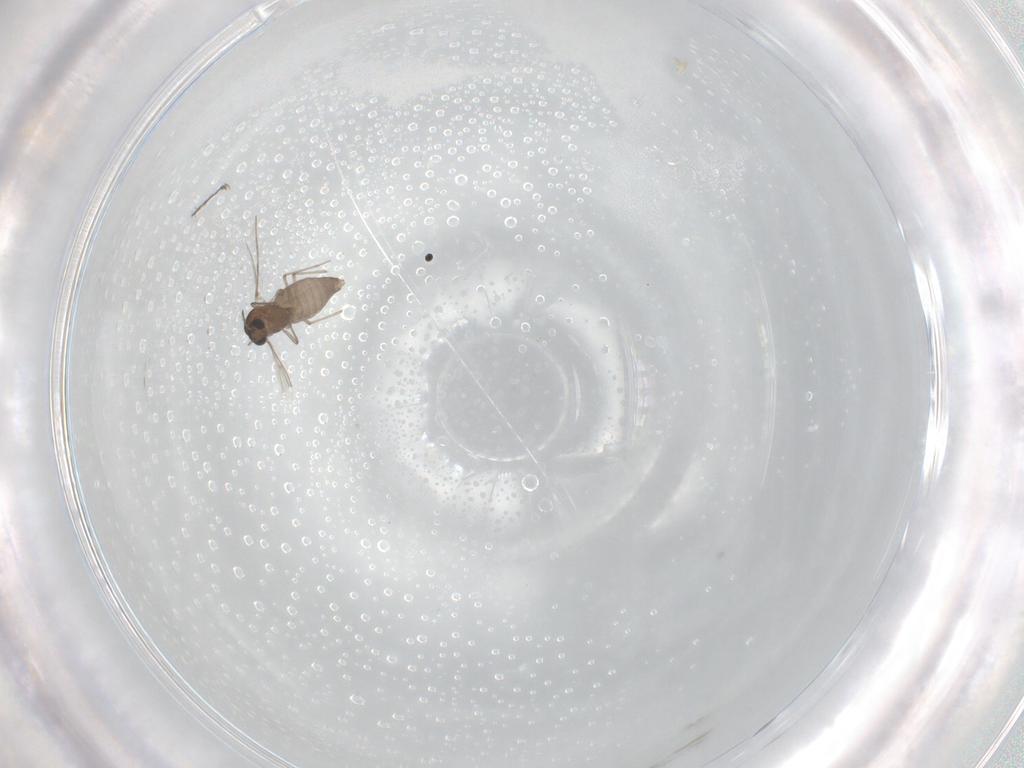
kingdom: Animalia
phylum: Arthropoda
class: Insecta
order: Diptera
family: Chironomidae
